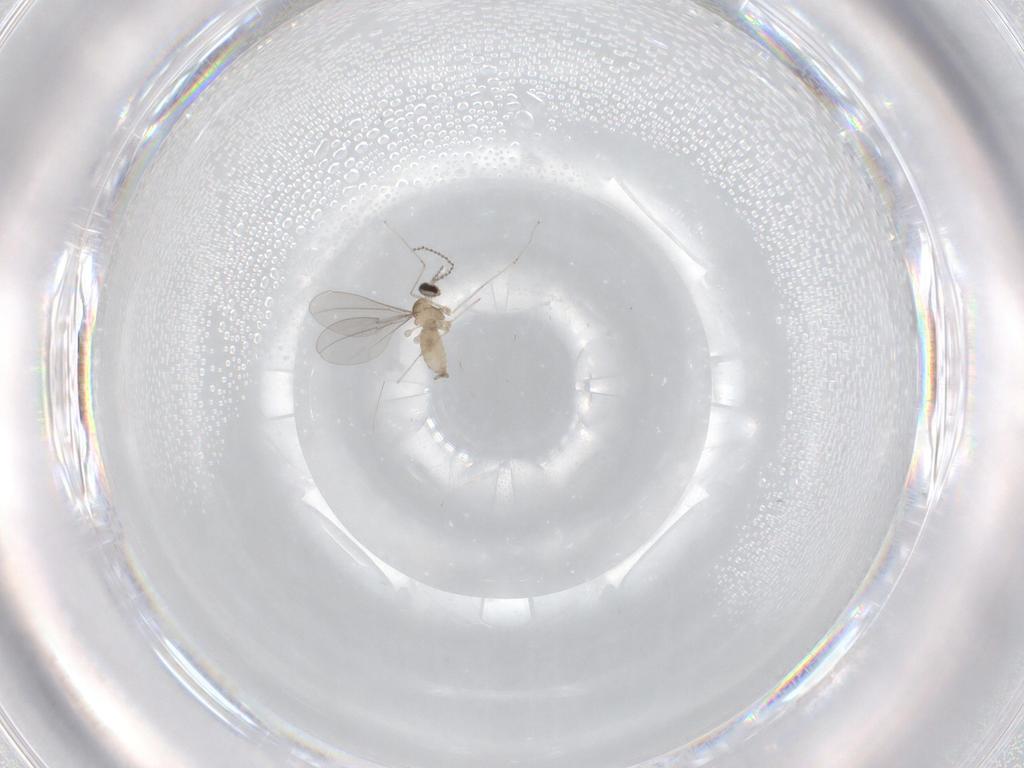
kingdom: Animalia
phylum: Arthropoda
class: Insecta
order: Diptera
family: Cecidomyiidae
